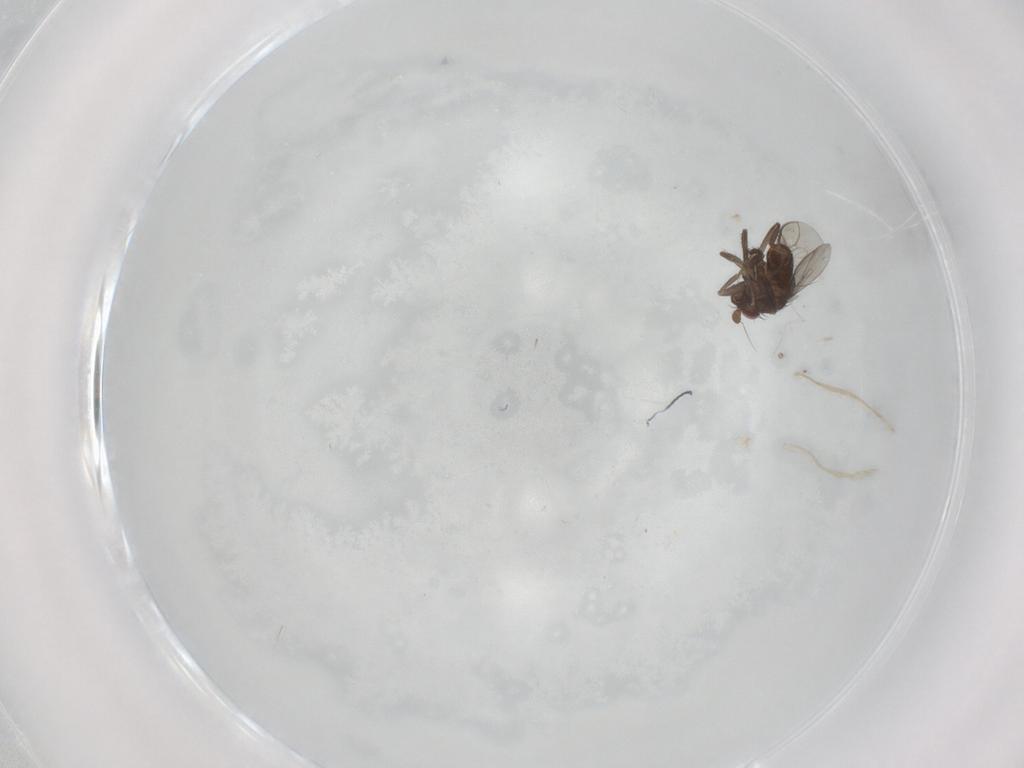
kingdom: Animalia
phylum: Arthropoda
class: Insecta
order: Diptera
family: Sphaeroceridae
